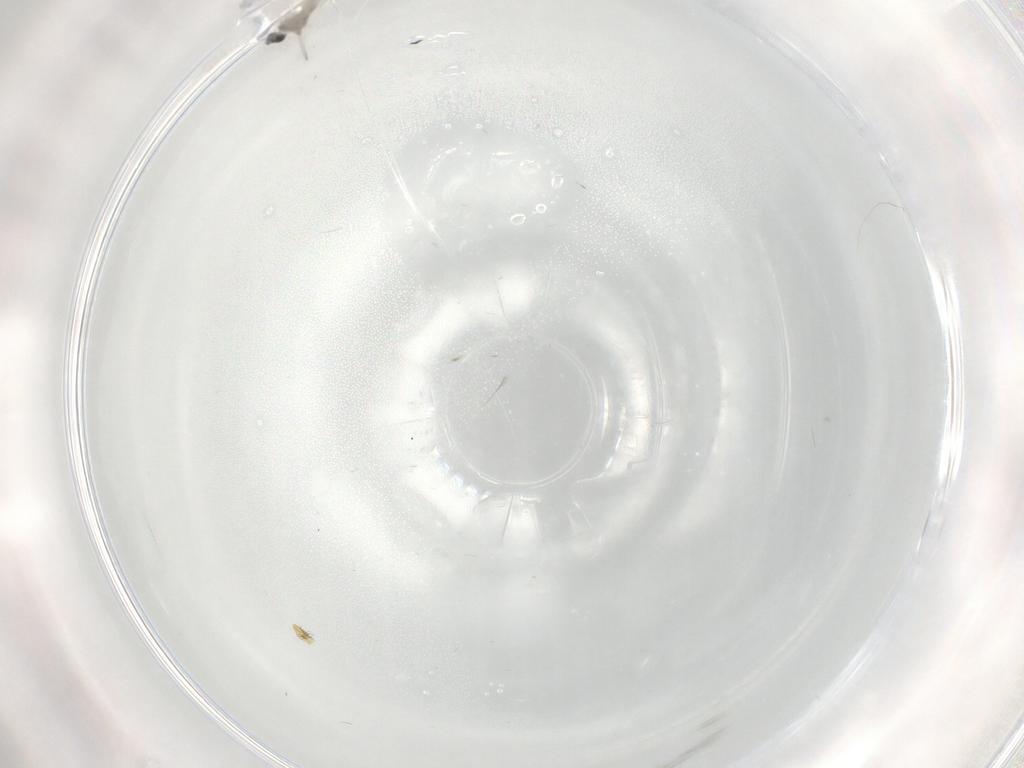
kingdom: Animalia
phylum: Arthropoda
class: Insecta
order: Diptera
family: Cecidomyiidae
